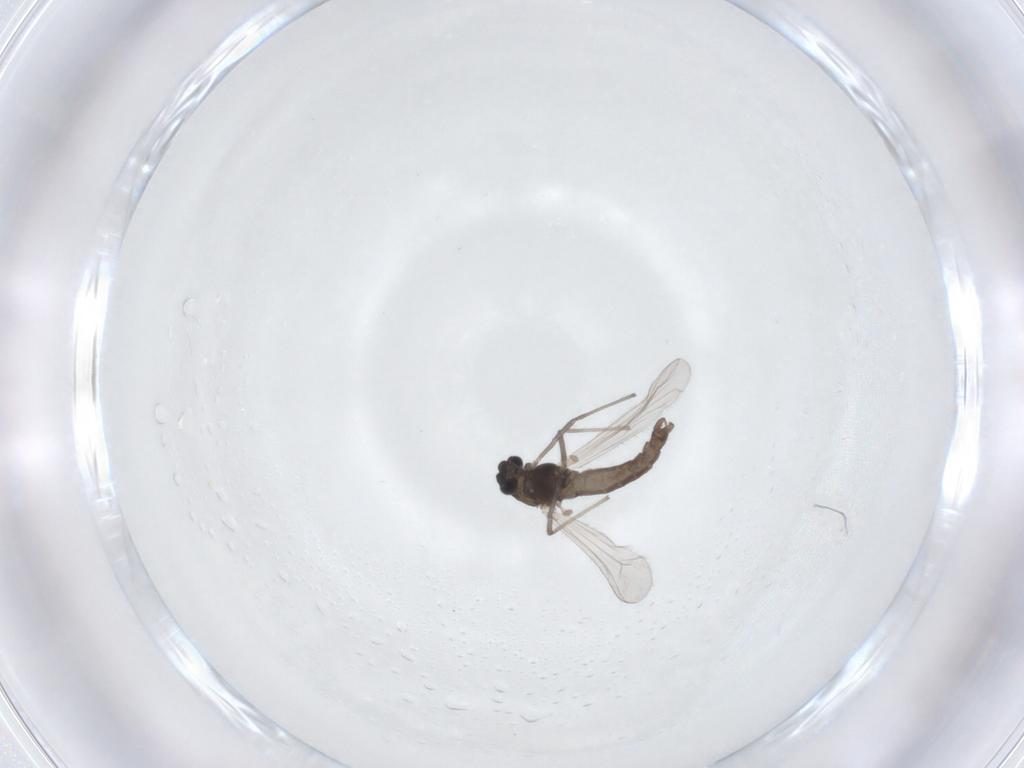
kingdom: Animalia
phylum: Arthropoda
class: Insecta
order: Diptera
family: Chironomidae
